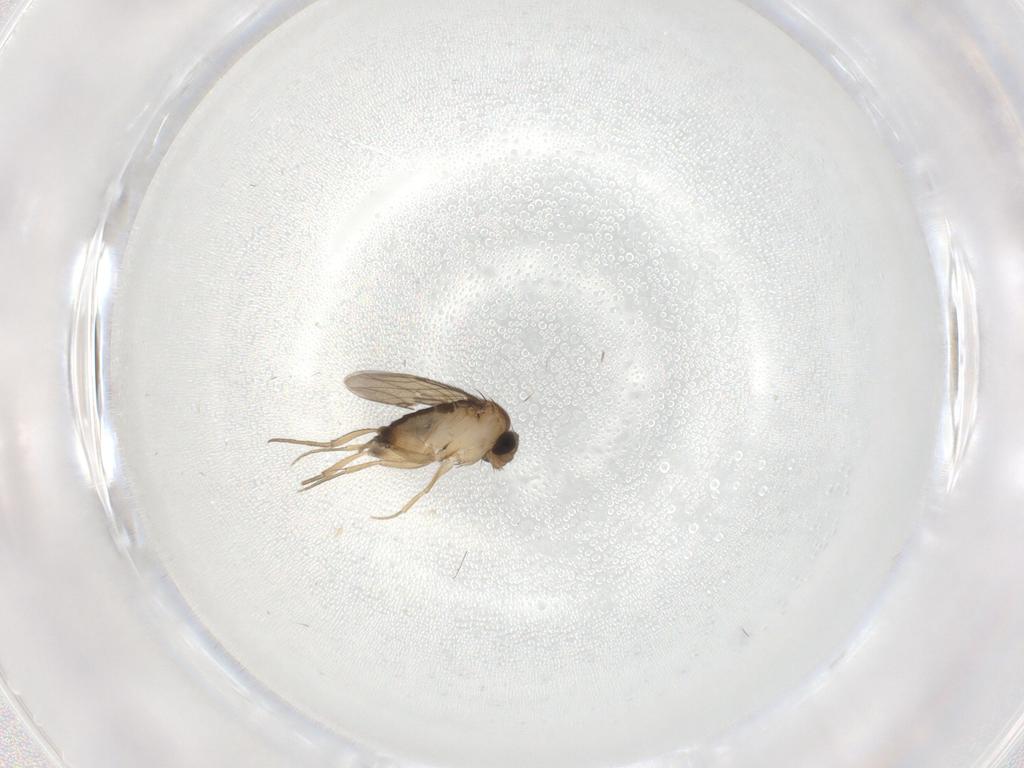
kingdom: Animalia
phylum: Arthropoda
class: Insecta
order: Diptera
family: Phoridae
